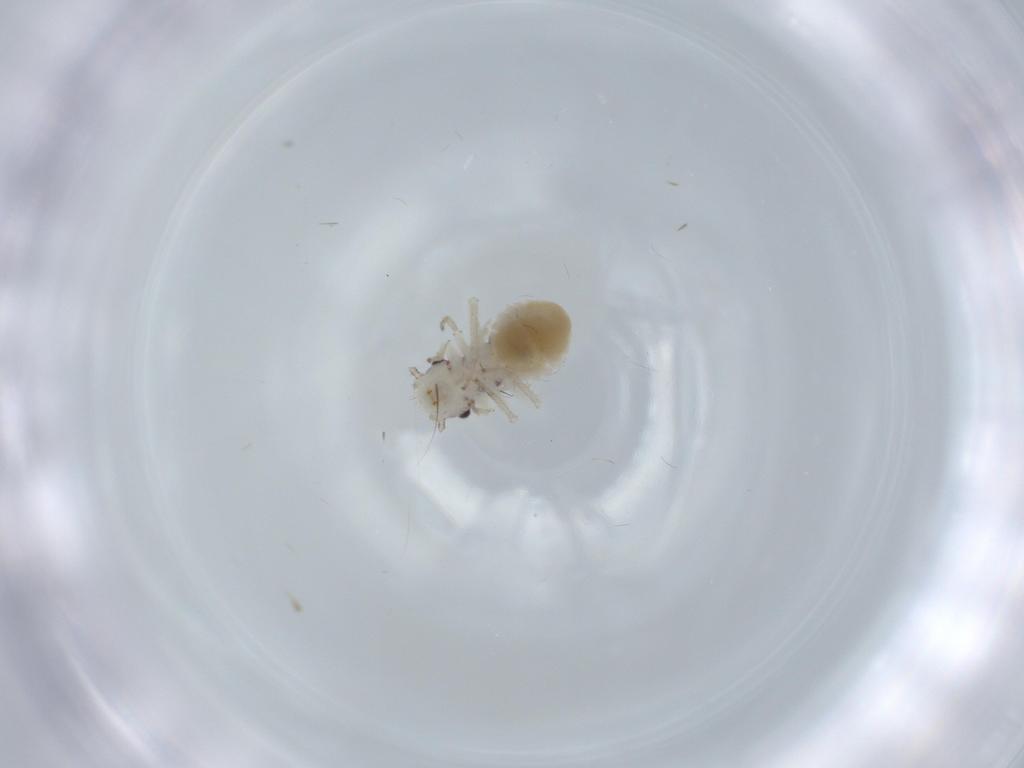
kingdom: Animalia
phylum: Arthropoda
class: Insecta
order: Psocodea
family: Pseudocaeciliidae
